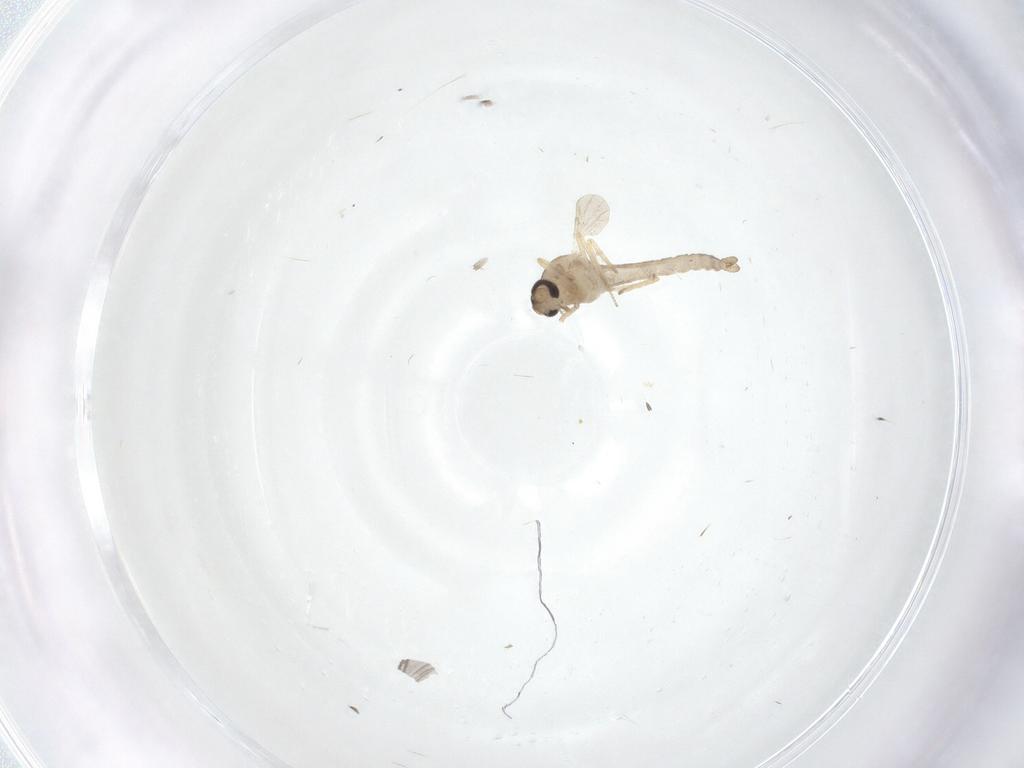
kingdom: Animalia
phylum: Arthropoda
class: Insecta
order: Diptera
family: Ceratopogonidae
